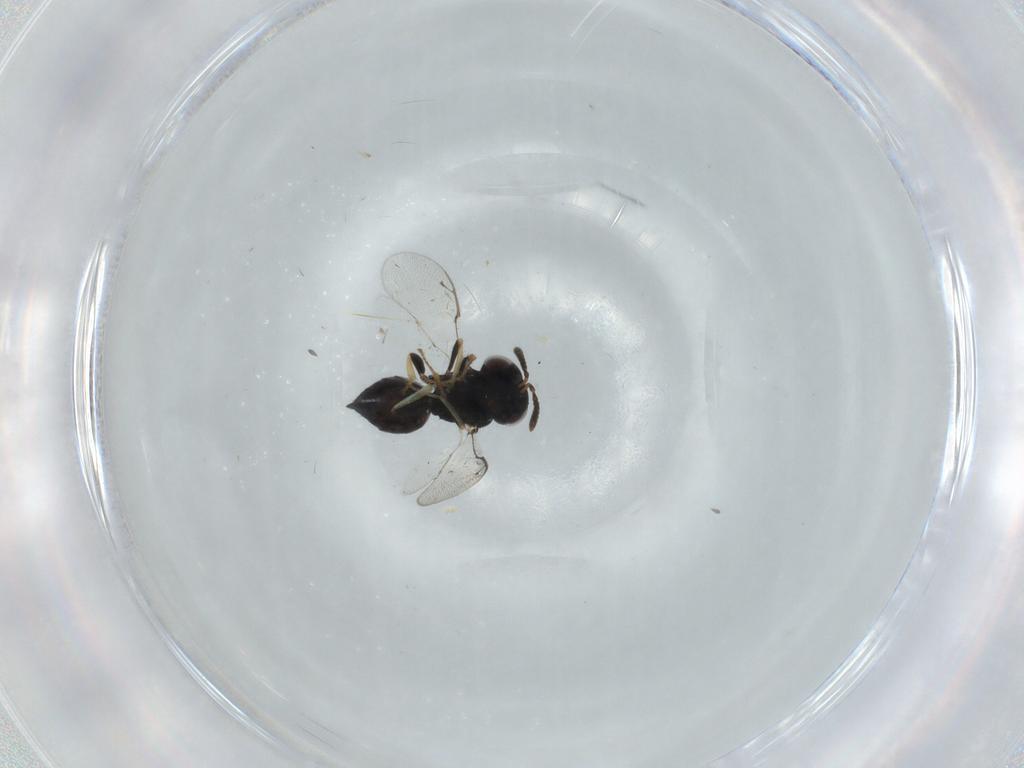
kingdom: Animalia
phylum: Arthropoda
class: Insecta
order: Hymenoptera
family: Pteromalidae
